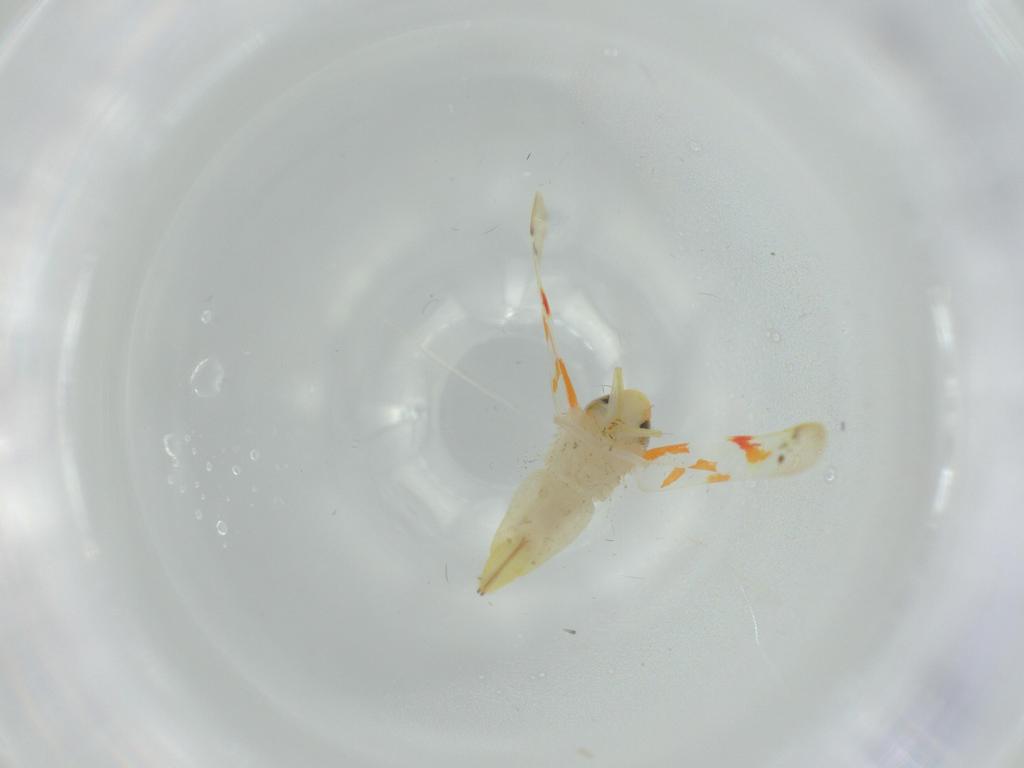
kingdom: Animalia
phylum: Arthropoda
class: Insecta
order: Hemiptera
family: Cicadellidae
